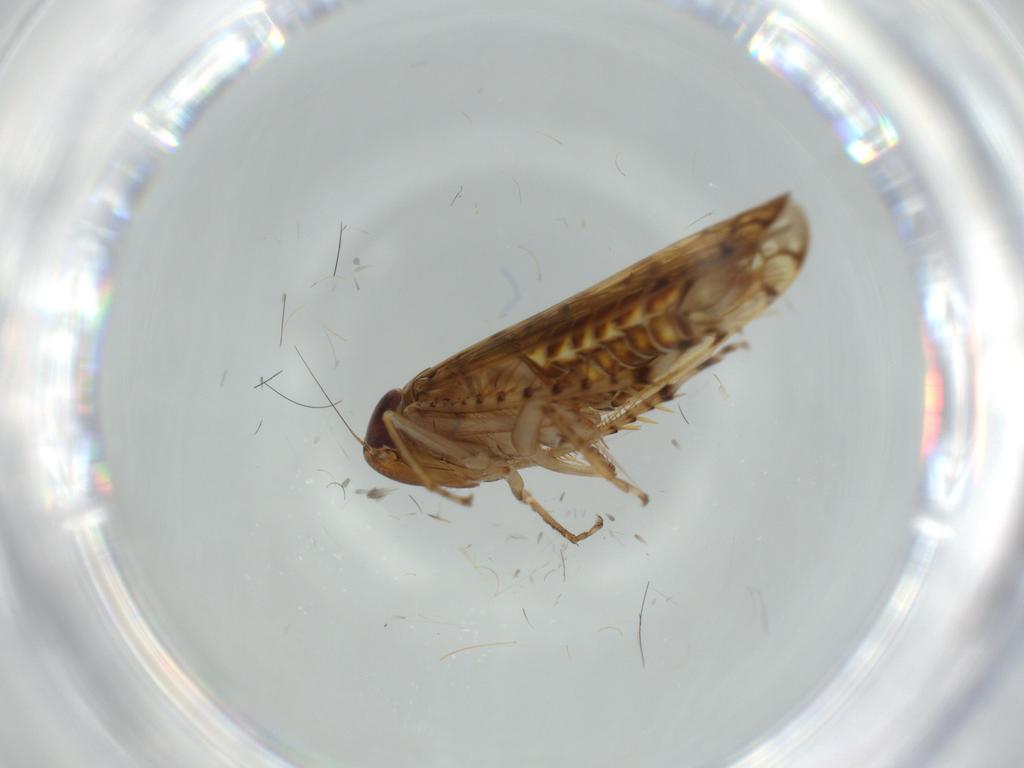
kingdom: Animalia
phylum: Arthropoda
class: Insecta
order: Hemiptera
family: Cicadellidae
